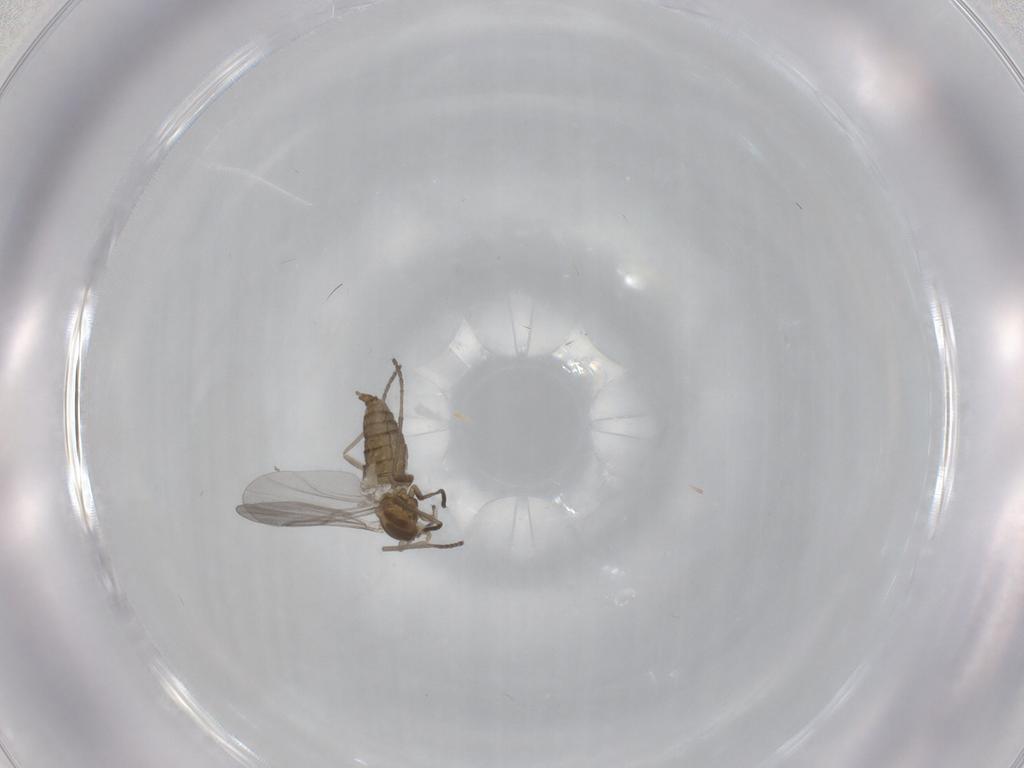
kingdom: Animalia
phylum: Arthropoda
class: Insecta
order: Diptera
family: Cecidomyiidae
